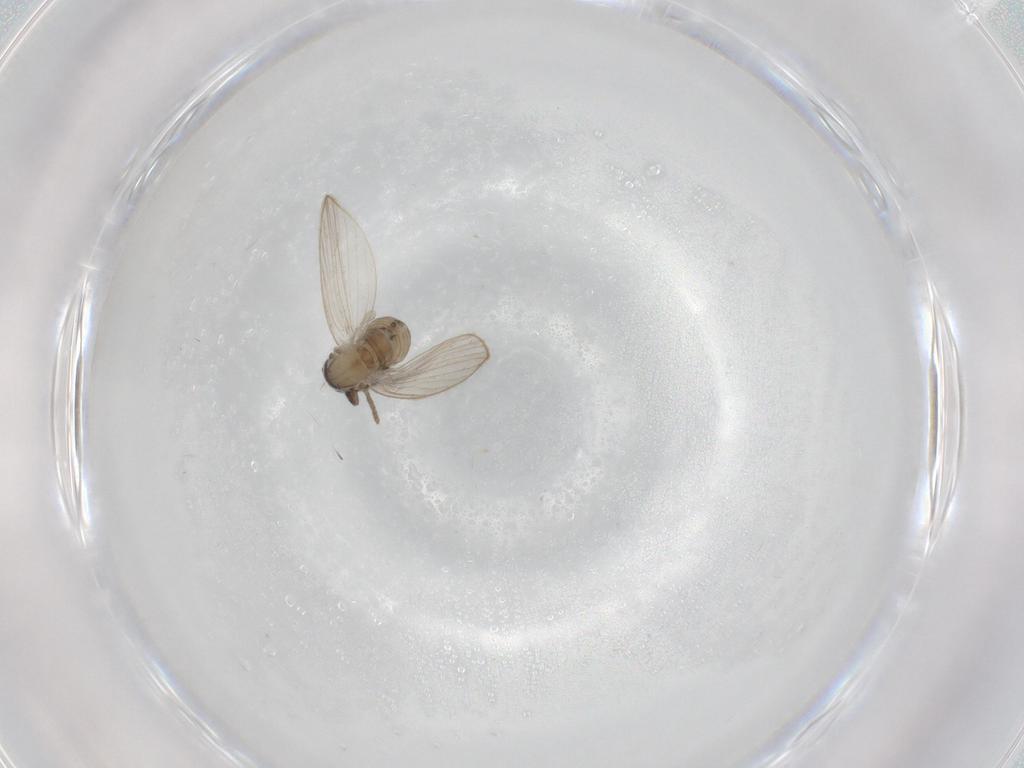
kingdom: Animalia
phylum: Arthropoda
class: Insecta
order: Diptera
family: Psychodidae
